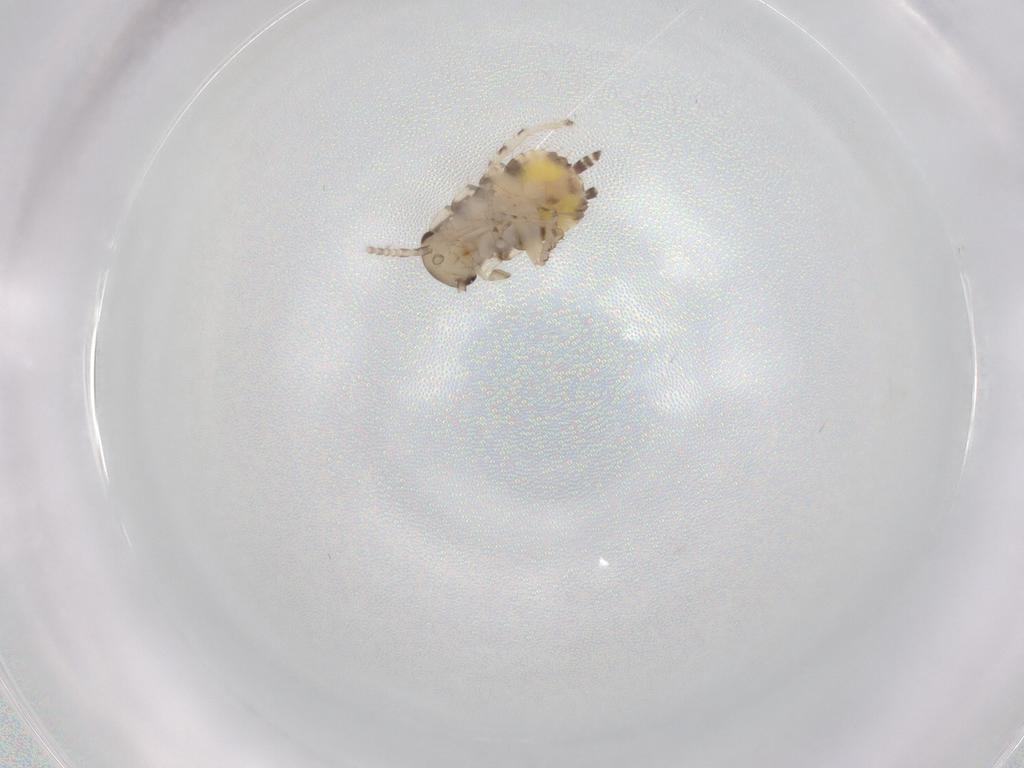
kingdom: Animalia
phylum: Arthropoda
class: Insecta
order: Blattodea
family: Ectobiidae
